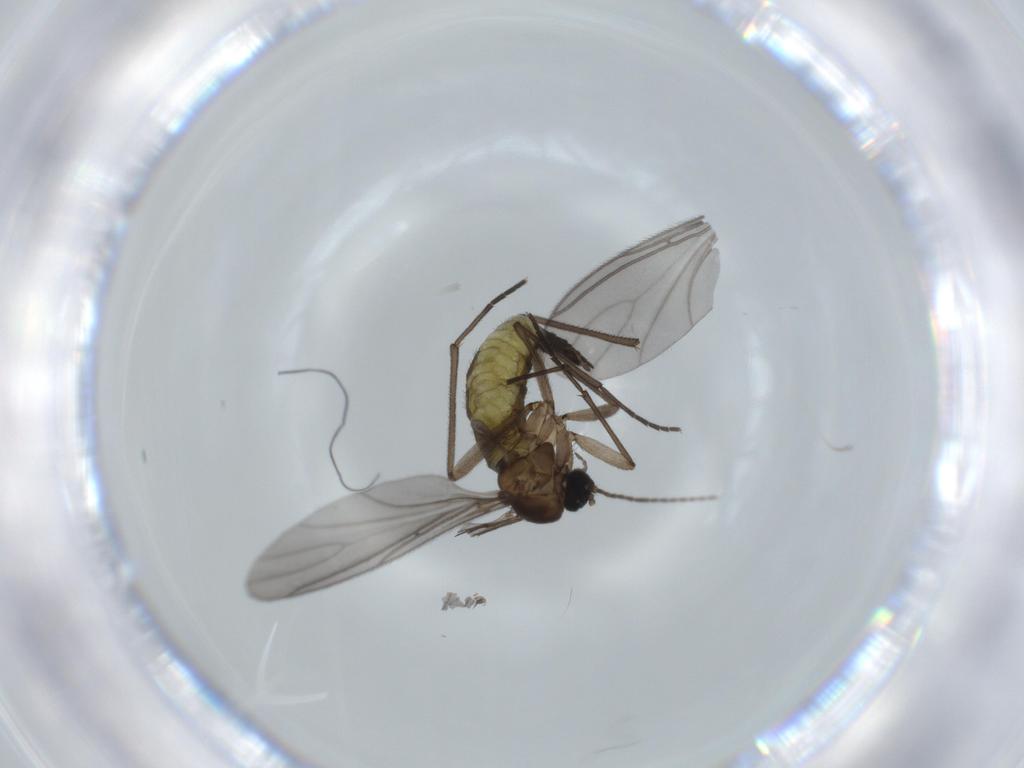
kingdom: Animalia
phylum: Arthropoda
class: Insecta
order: Diptera
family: Sciaridae
